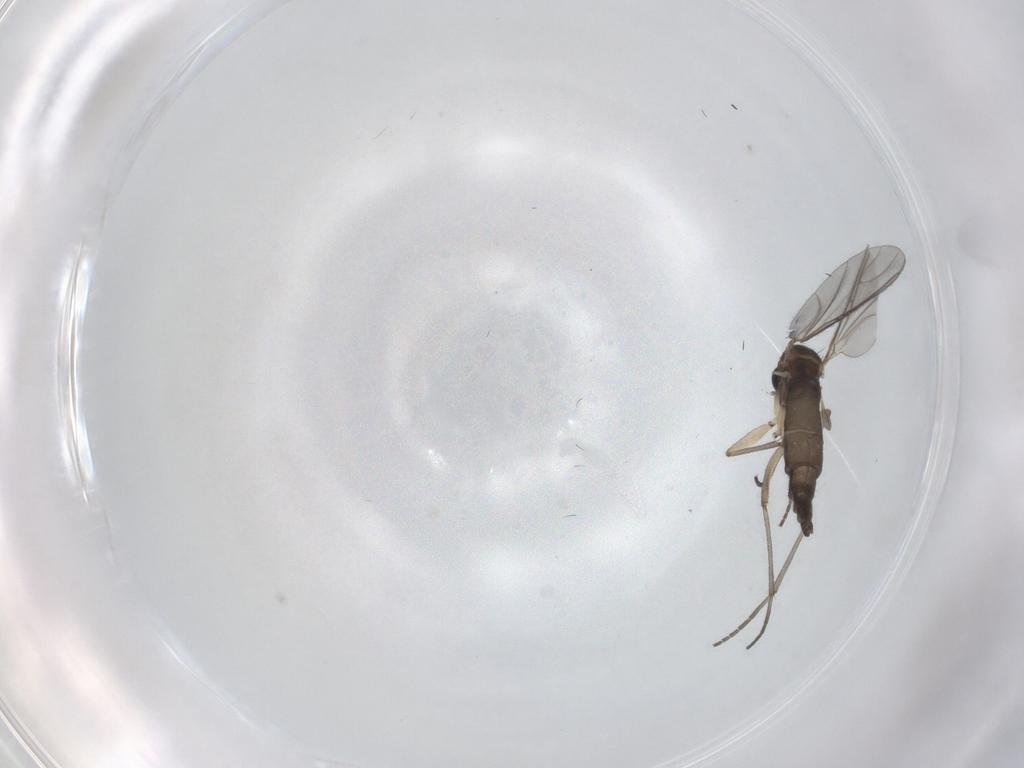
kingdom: Animalia
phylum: Arthropoda
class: Insecta
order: Diptera
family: Sciaridae
